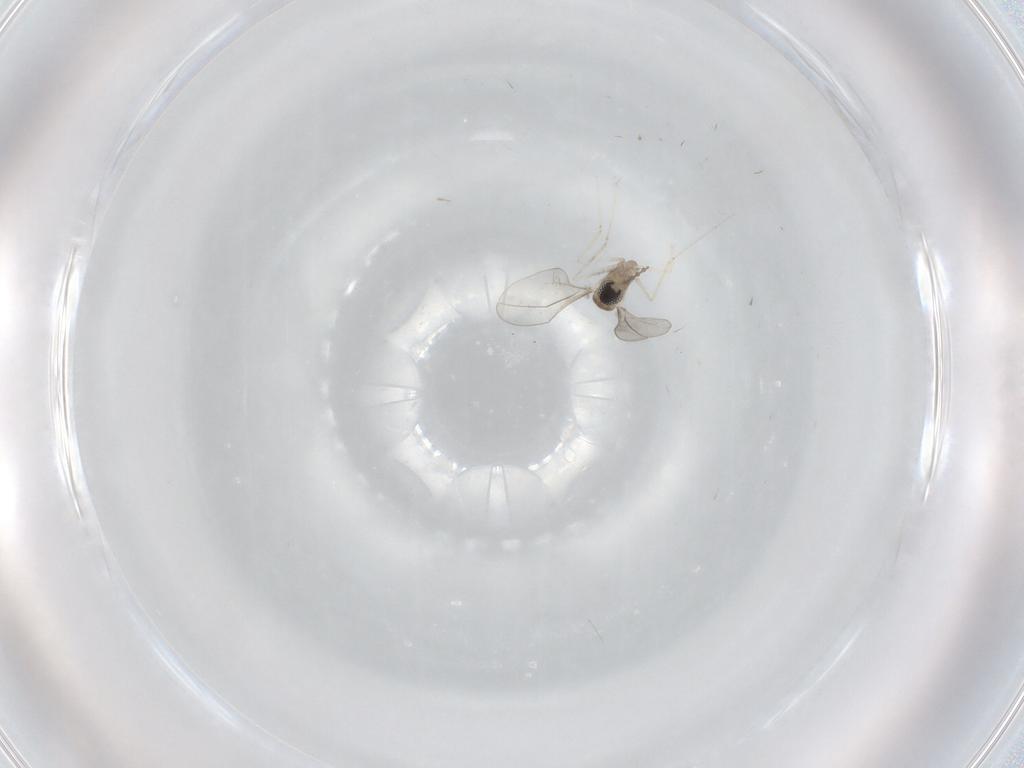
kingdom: Animalia
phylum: Arthropoda
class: Insecta
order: Diptera
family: Ceratopogonidae
